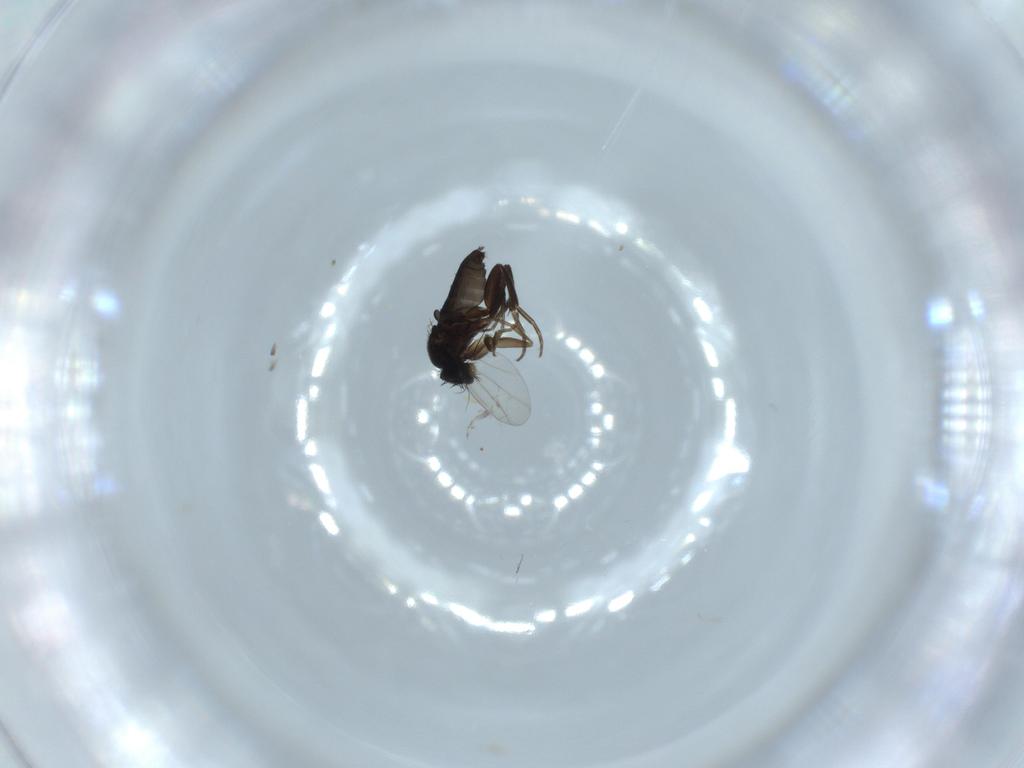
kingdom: Animalia
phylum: Arthropoda
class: Insecta
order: Diptera
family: Phoridae
